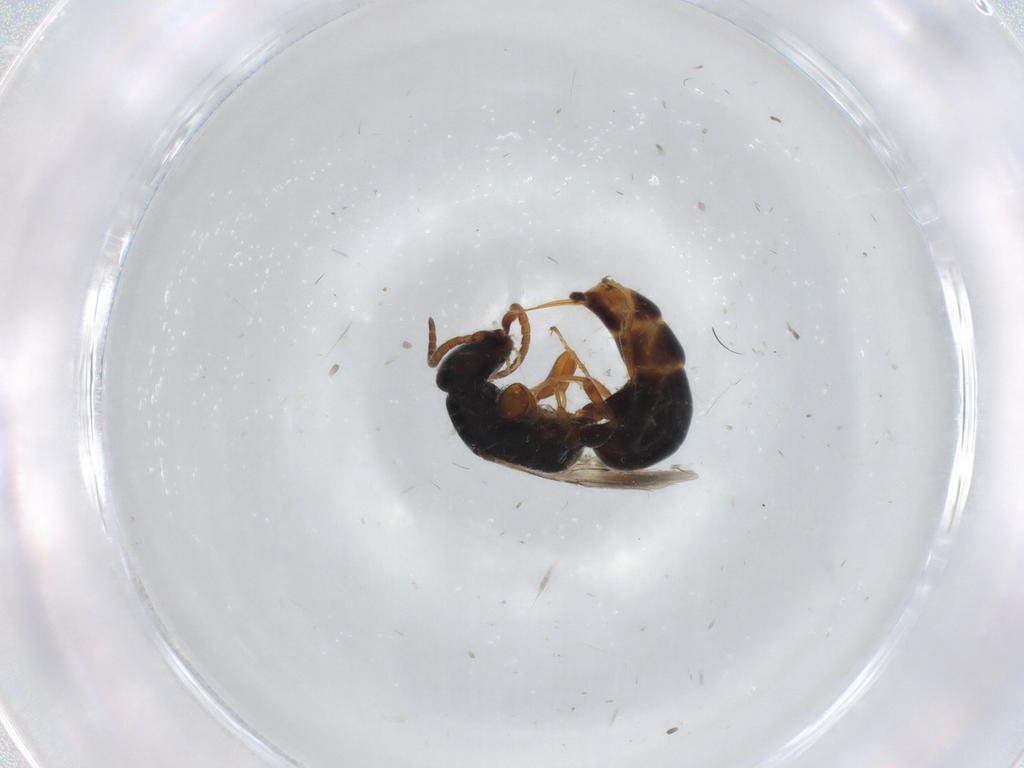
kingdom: Animalia
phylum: Arthropoda
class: Insecta
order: Hymenoptera
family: Bethylidae
